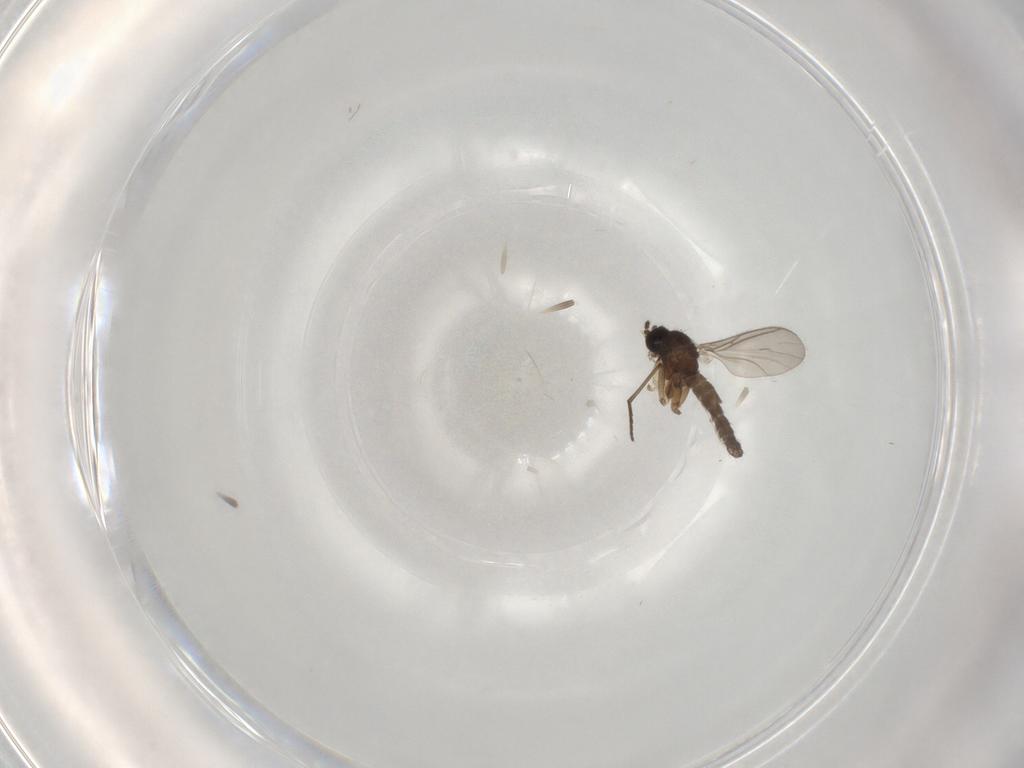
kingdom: Animalia
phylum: Arthropoda
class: Insecta
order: Diptera
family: Sciaridae
